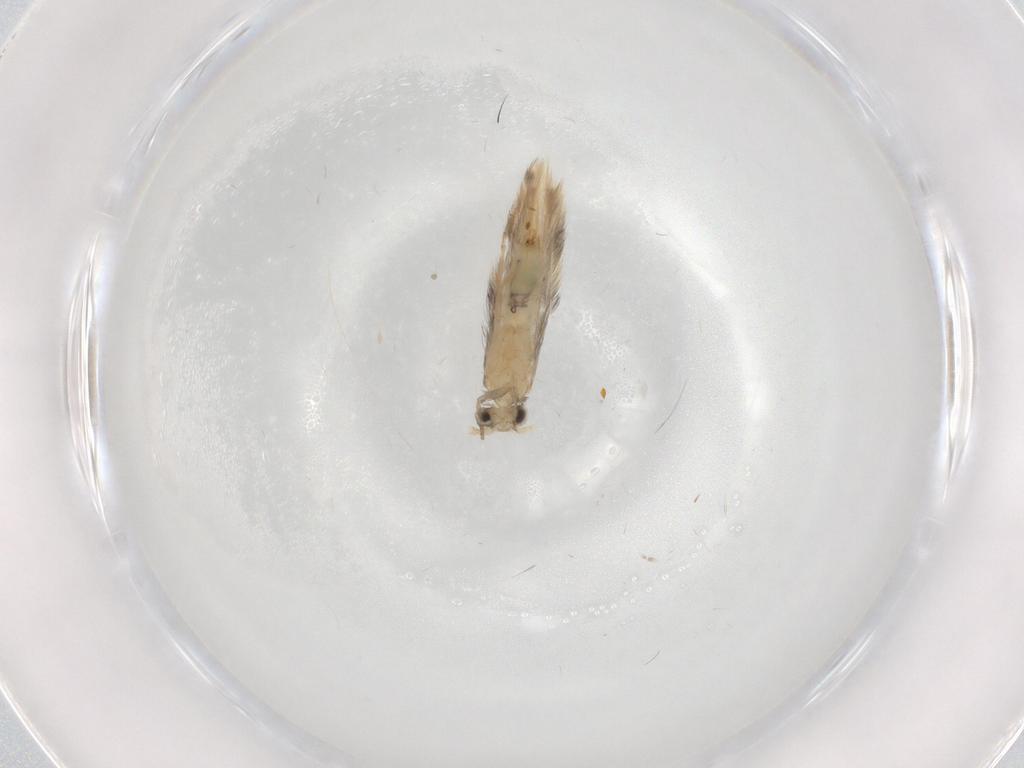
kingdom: Animalia
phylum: Arthropoda
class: Insecta
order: Trichoptera
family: Hydroptilidae
